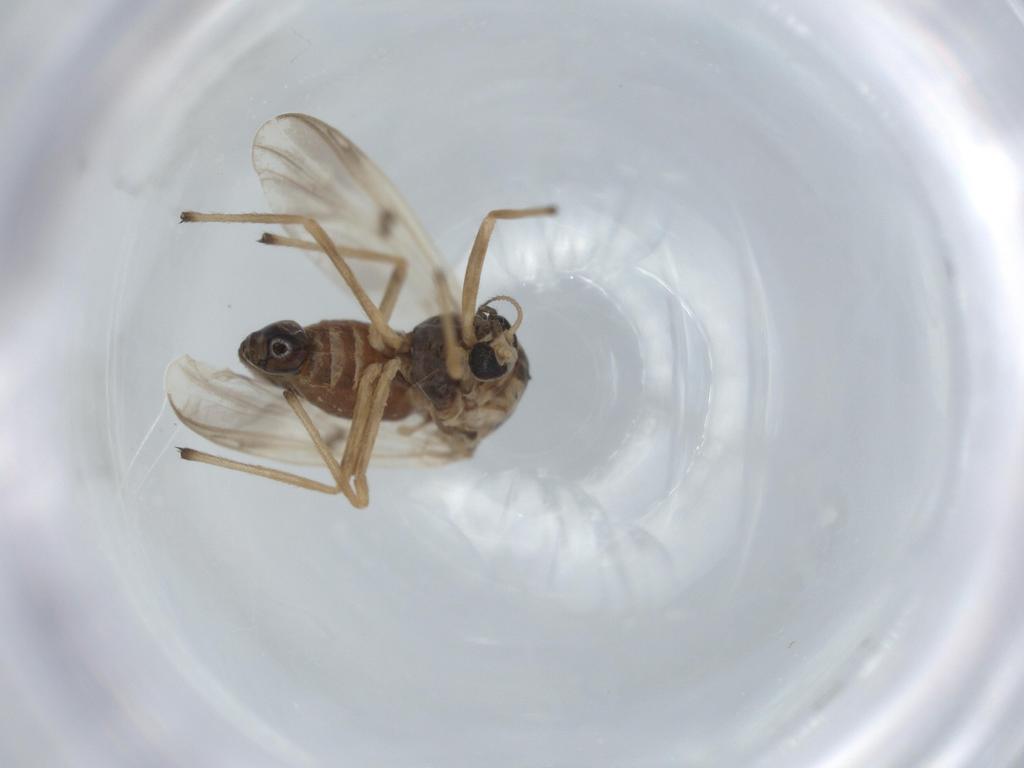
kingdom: Animalia
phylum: Arthropoda
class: Insecta
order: Diptera
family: Chironomidae
